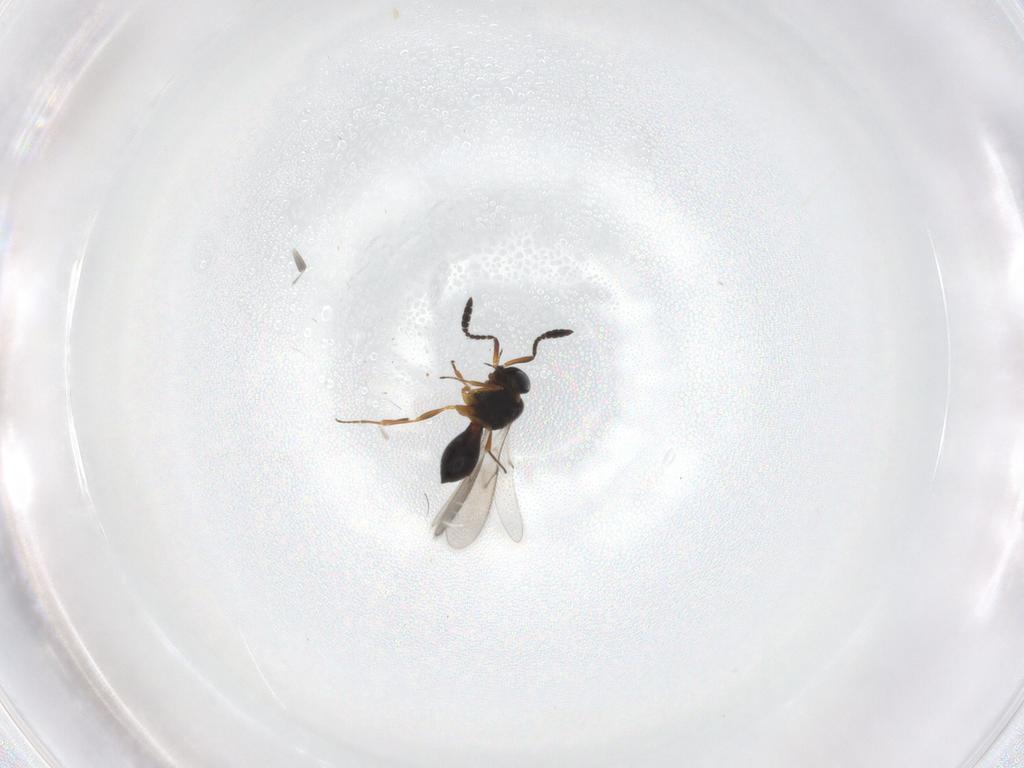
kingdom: Animalia
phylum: Arthropoda
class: Insecta
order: Hymenoptera
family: Scelionidae
